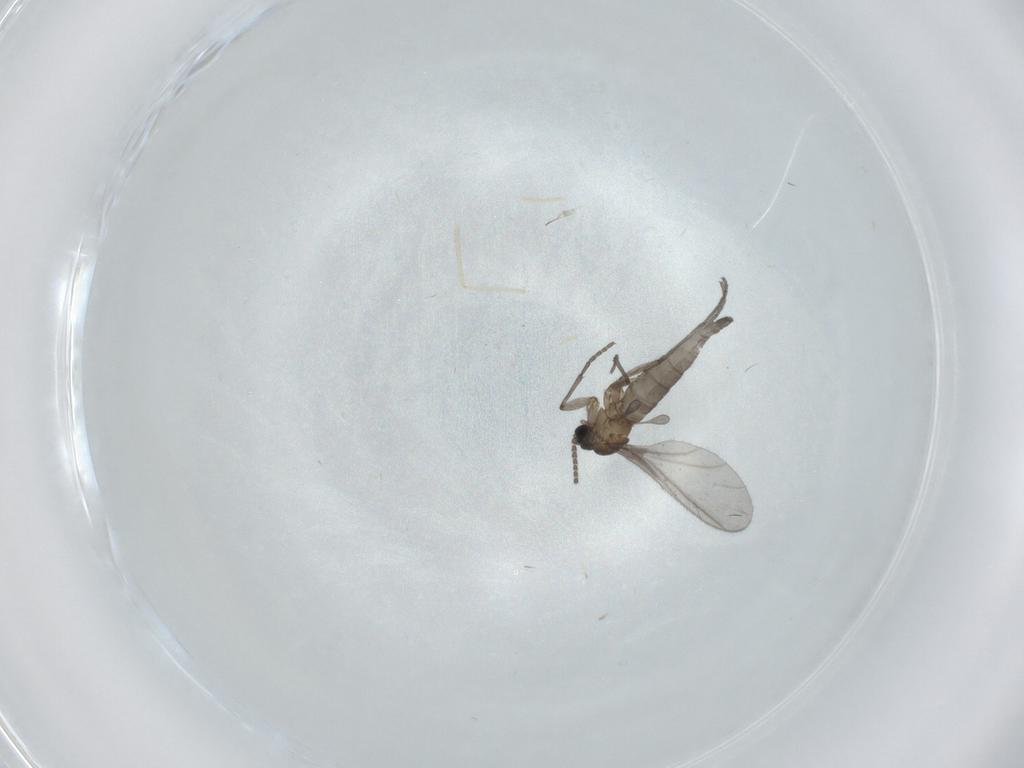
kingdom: Animalia
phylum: Arthropoda
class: Insecta
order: Diptera
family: Sciaridae
